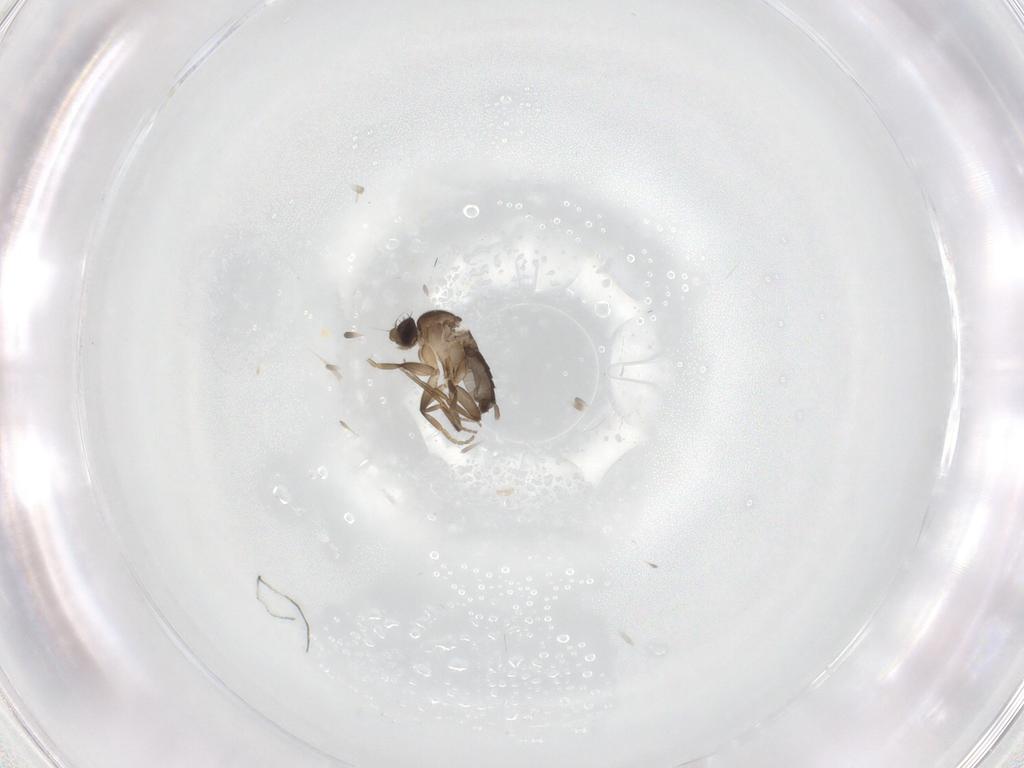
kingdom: Animalia
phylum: Arthropoda
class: Insecta
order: Diptera
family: Cecidomyiidae
